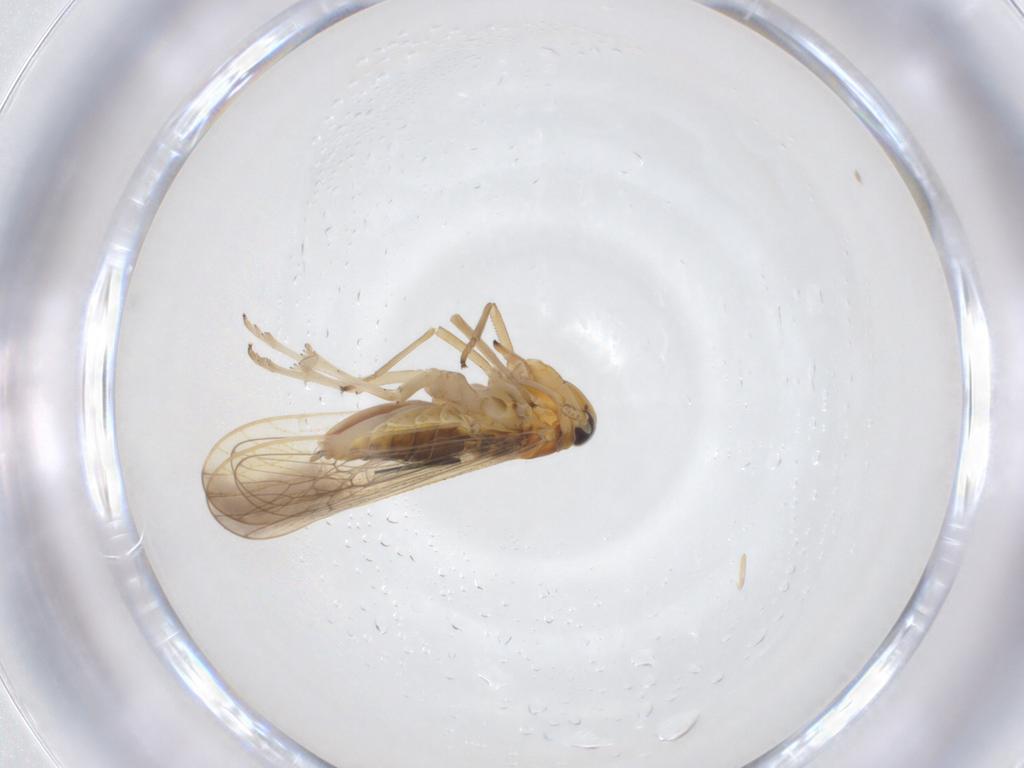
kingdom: Animalia
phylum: Arthropoda
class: Insecta
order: Hemiptera
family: Delphacidae
